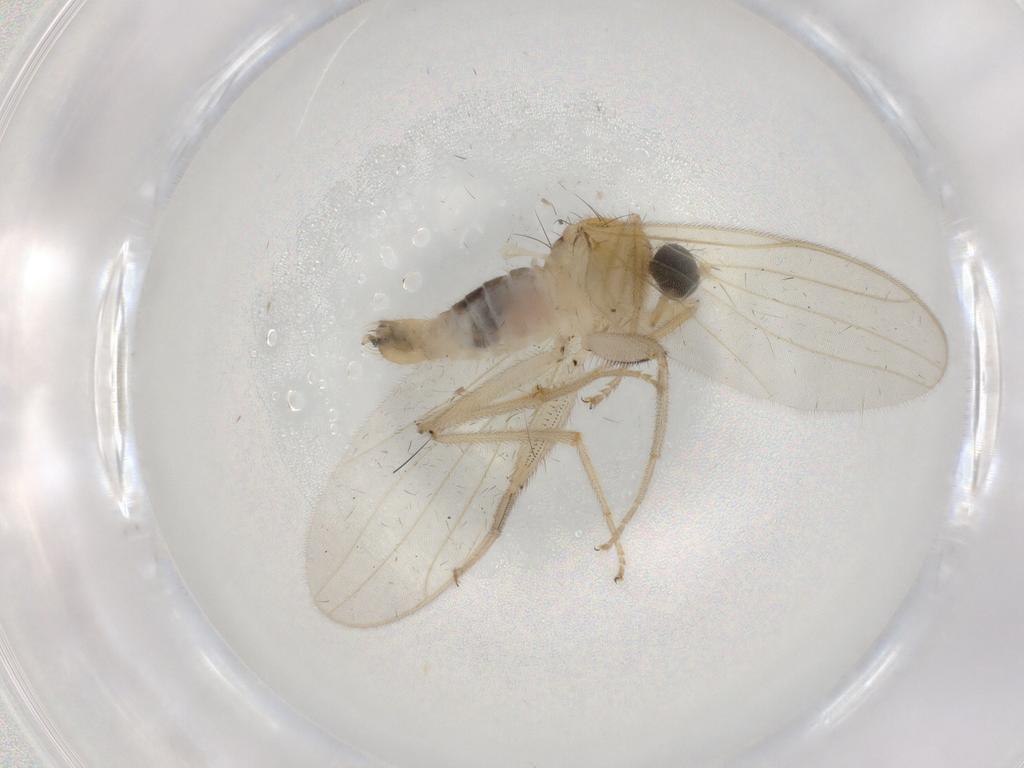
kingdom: Animalia
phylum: Arthropoda
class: Insecta
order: Diptera
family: Hybotidae
